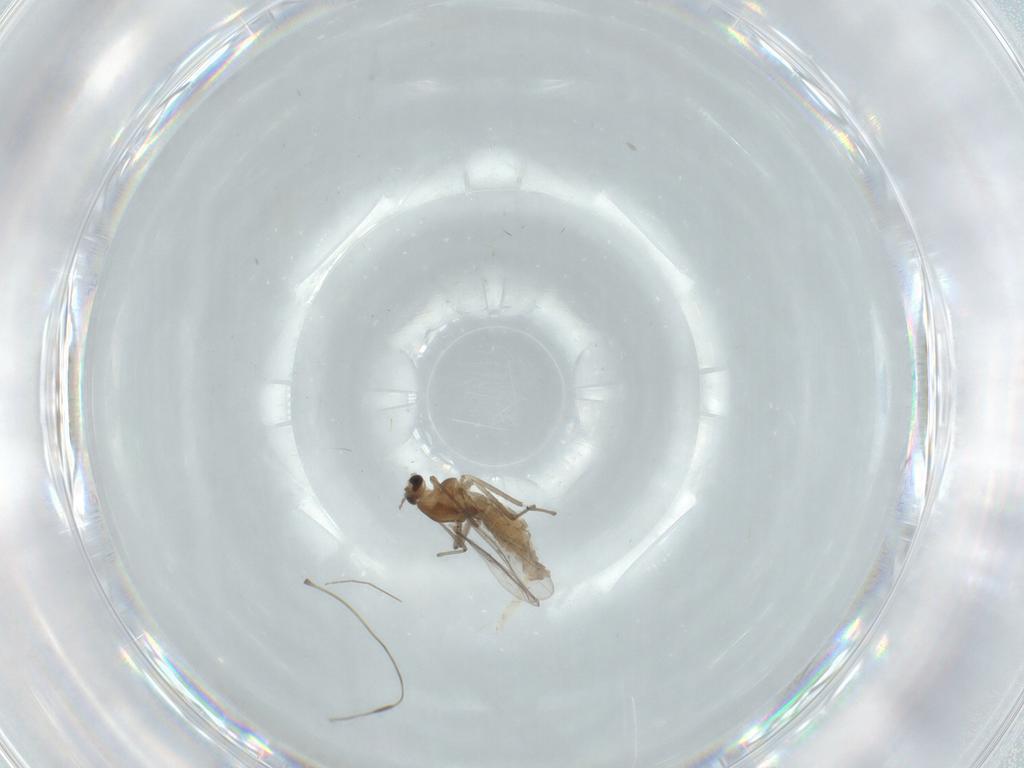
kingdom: Animalia
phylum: Arthropoda
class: Insecta
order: Diptera
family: Chironomidae
